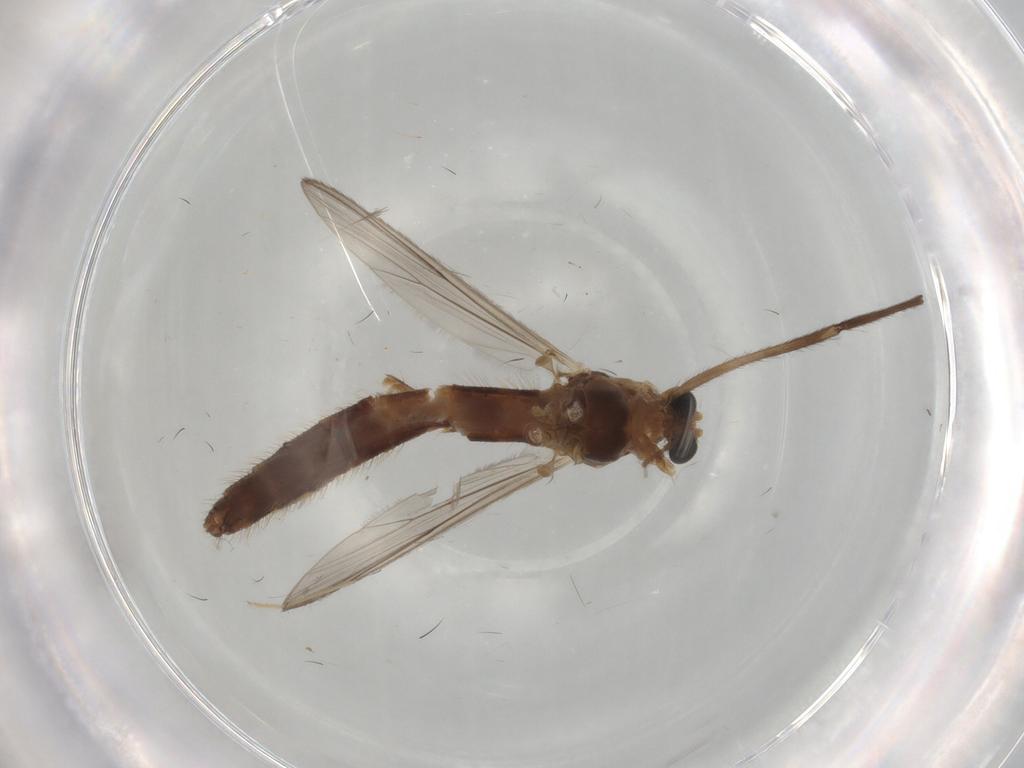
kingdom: Animalia
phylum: Arthropoda
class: Insecta
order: Diptera
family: Chironomidae
